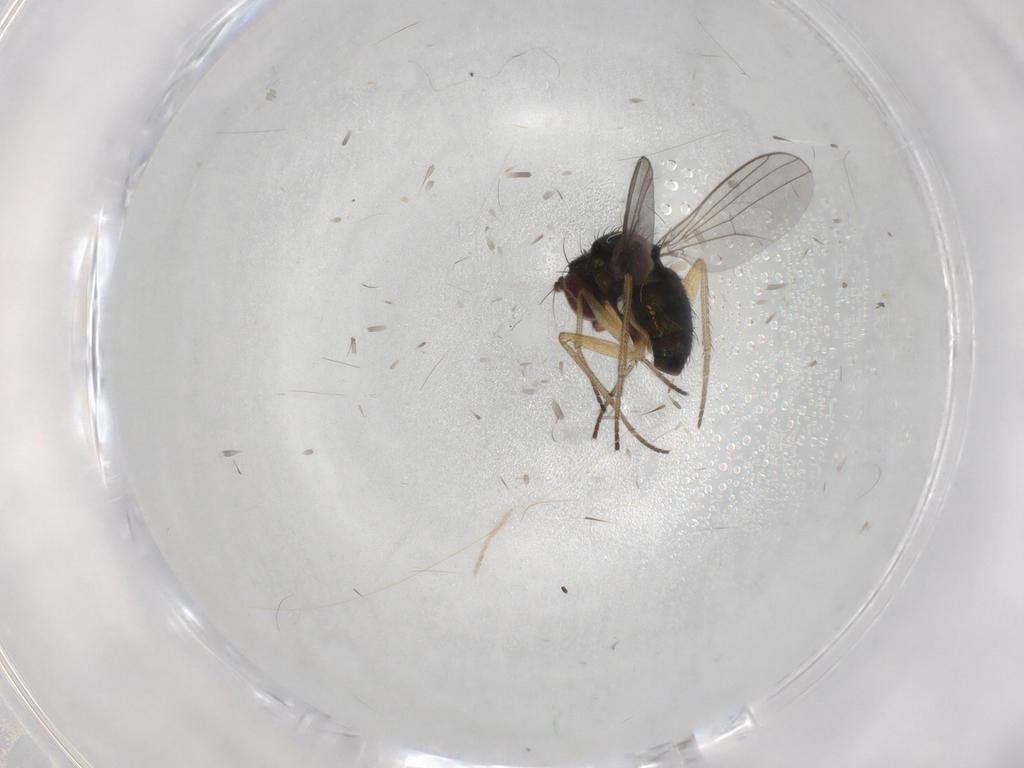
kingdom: Animalia
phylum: Arthropoda
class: Insecta
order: Diptera
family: Dolichopodidae
